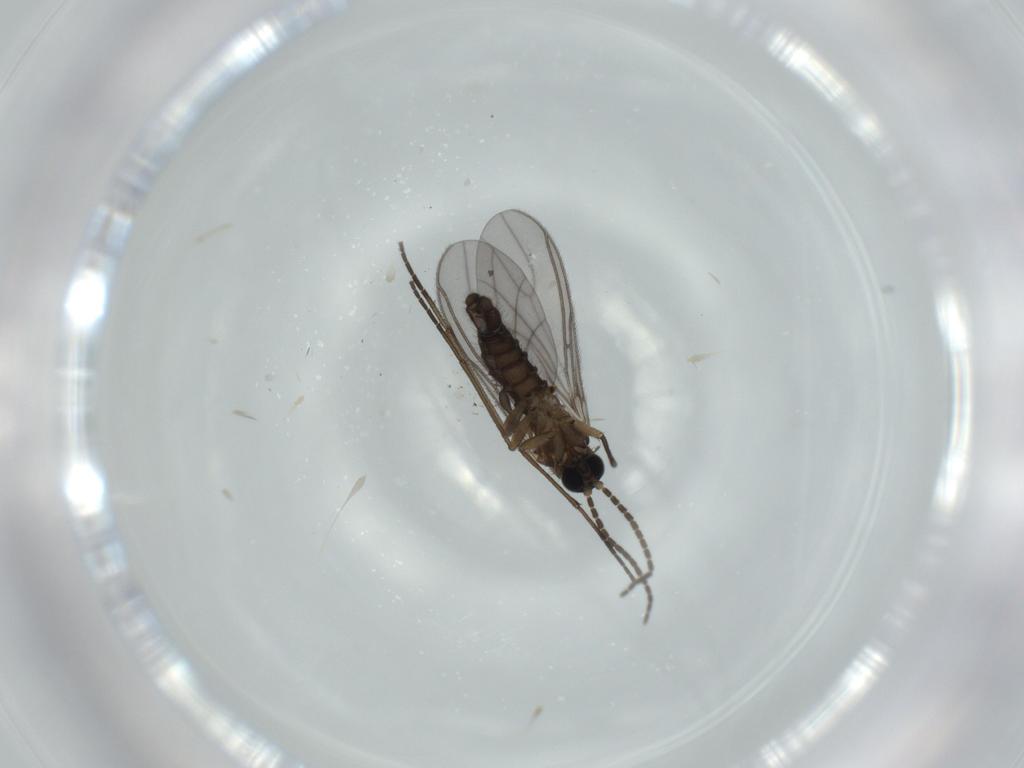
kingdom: Animalia
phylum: Arthropoda
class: Insecta
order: Diptera
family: Sciaridae
